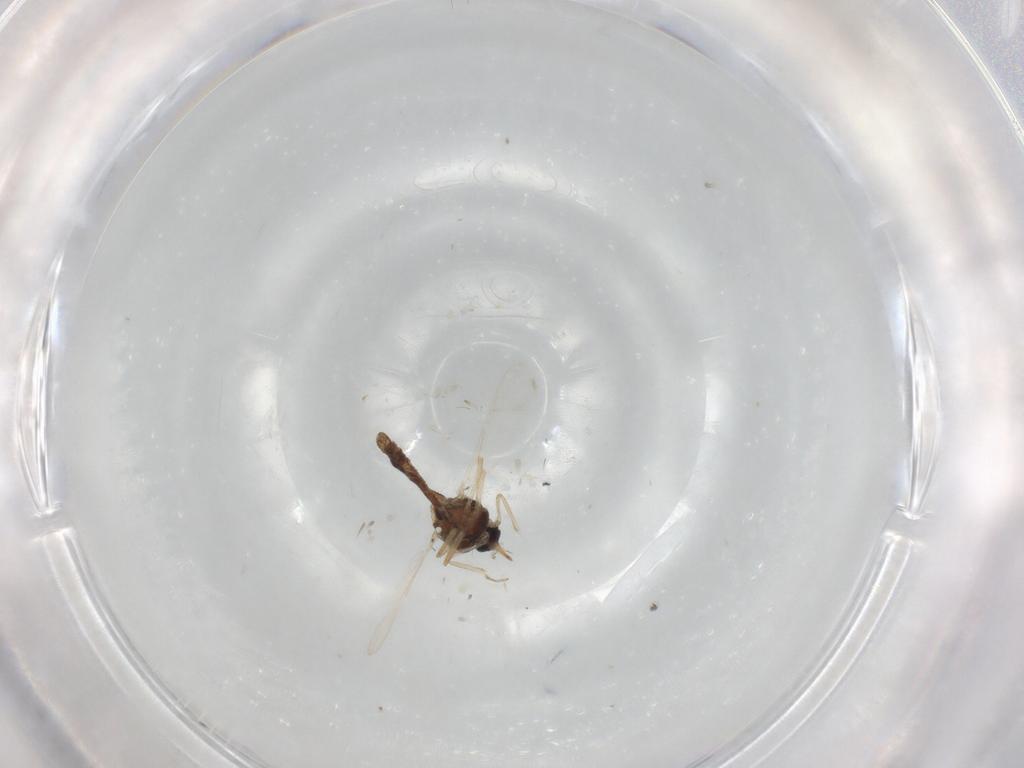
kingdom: Animalia
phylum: Arthropoda
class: Insecta
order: Diptera
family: Ceratopogonidae
